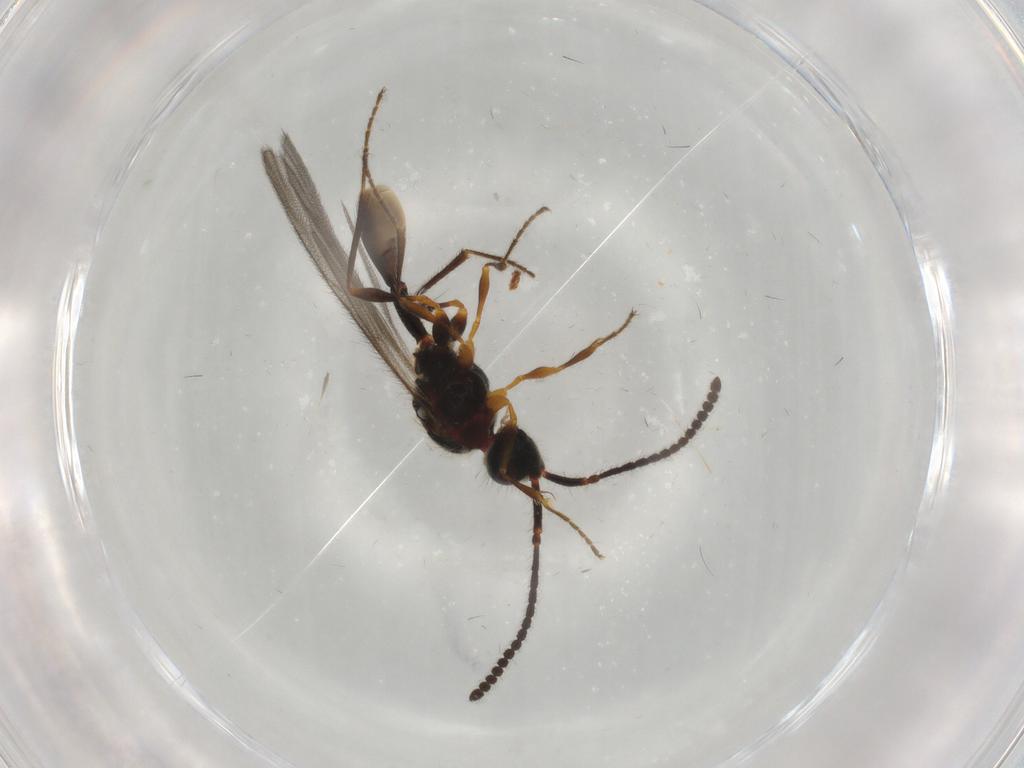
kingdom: Animalia
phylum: Arthropoda
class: Insecta
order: Hymenoptera
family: Diapriidae
